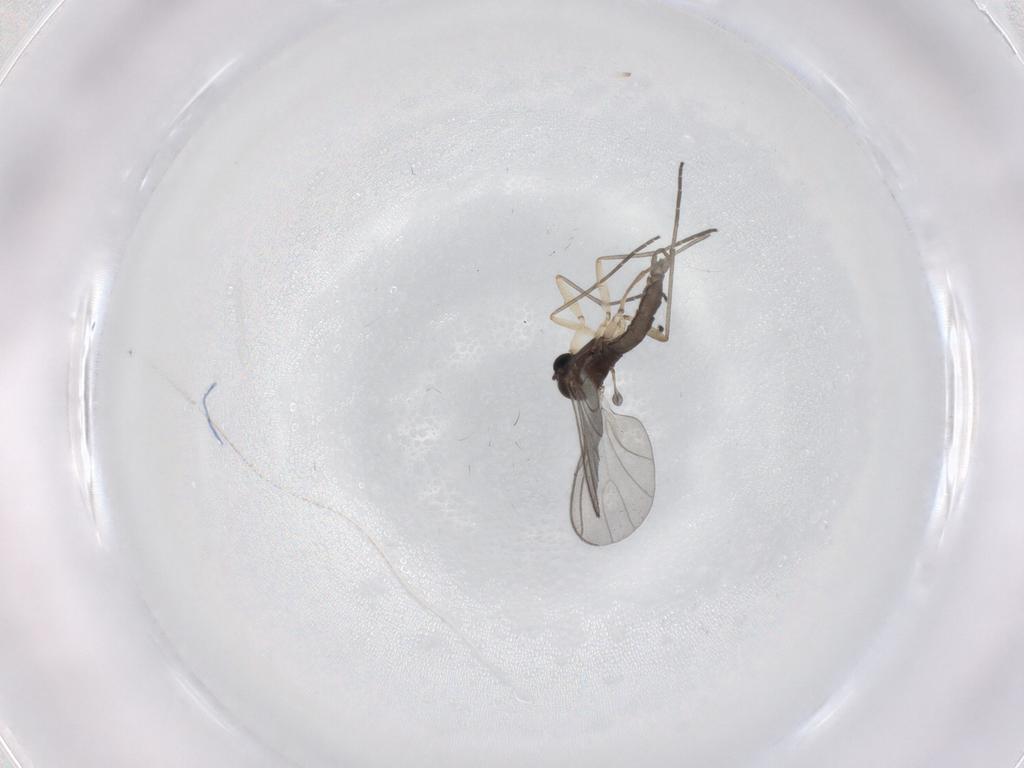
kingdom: Animalia
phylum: Arthropoda
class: Insecta
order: Diptera
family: Sciaridae
